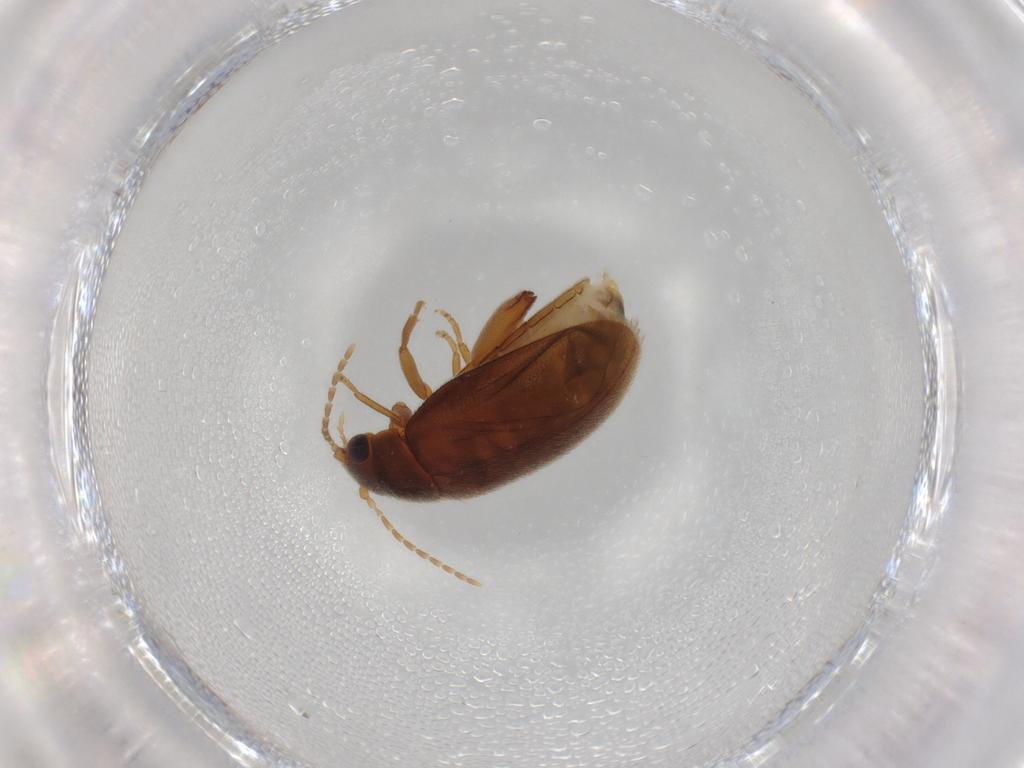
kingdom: Animalia
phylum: Arthropoda
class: Insecta
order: Coleoptera
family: Scirtidae
